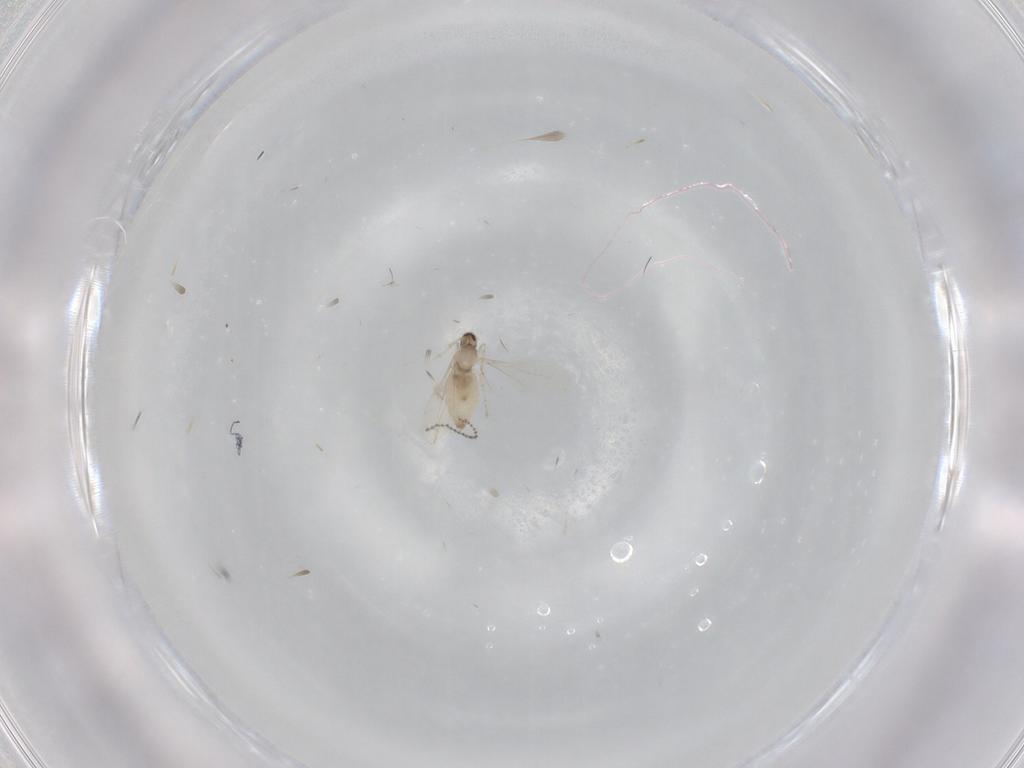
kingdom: Animalia
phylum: Arthropoda
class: Insecta
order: Diptera
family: Cecidomyiidae
